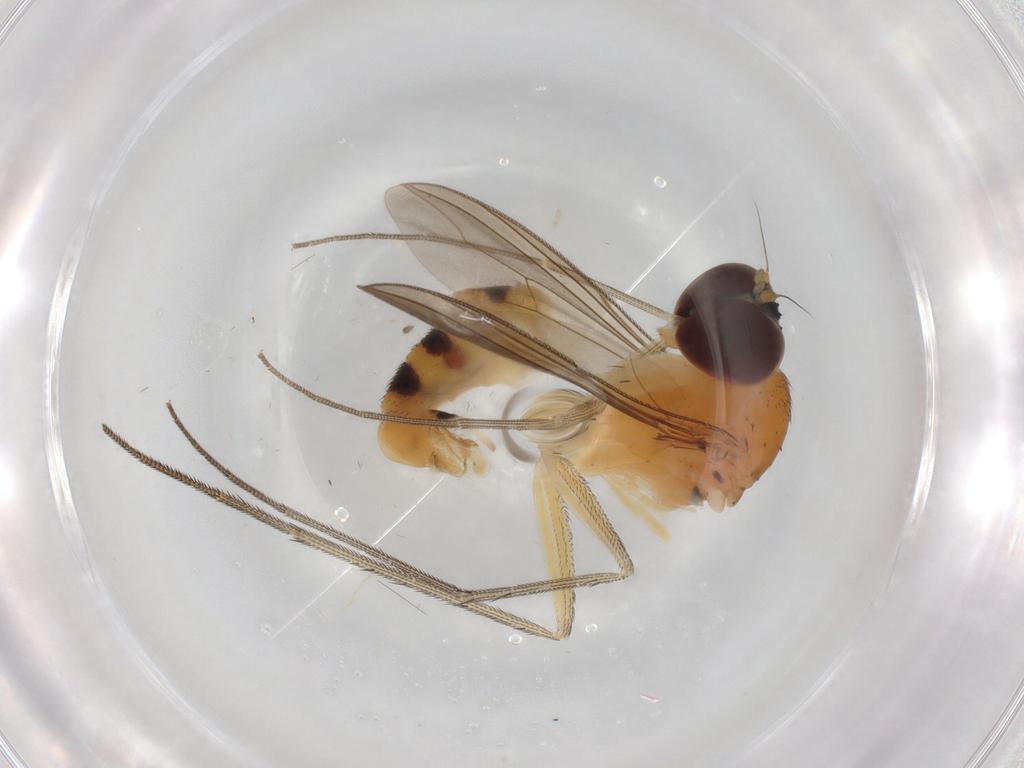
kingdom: Animalia
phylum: Arthropoda
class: Insecta
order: Diptera
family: Dolichopodidae
